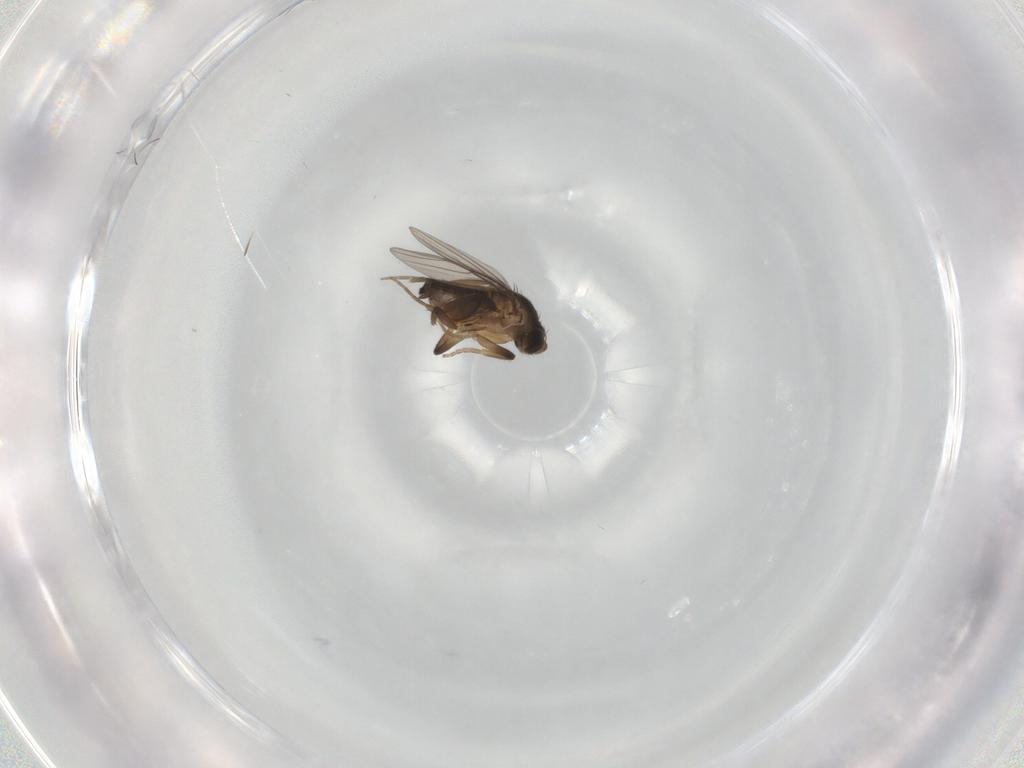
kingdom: Animalia
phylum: Arthropoda
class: Insecta
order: Diptera
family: Phoridae
